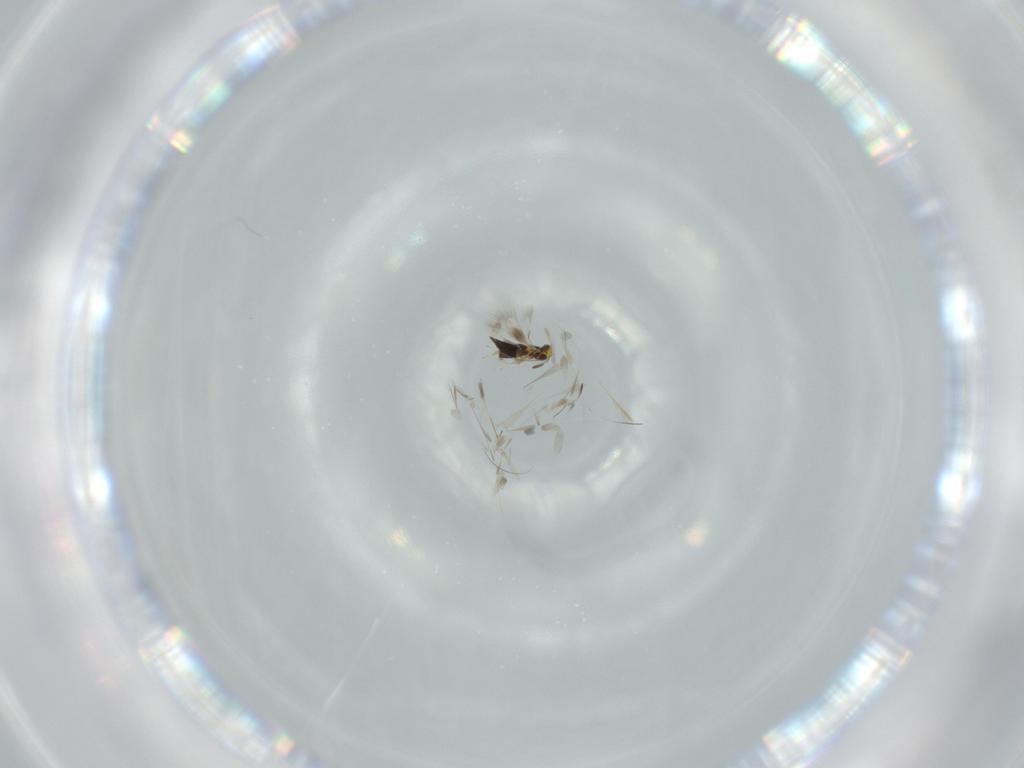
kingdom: Animalia
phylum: Arthropoda
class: Insecta
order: Hymenoptera
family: Signiphoridae
